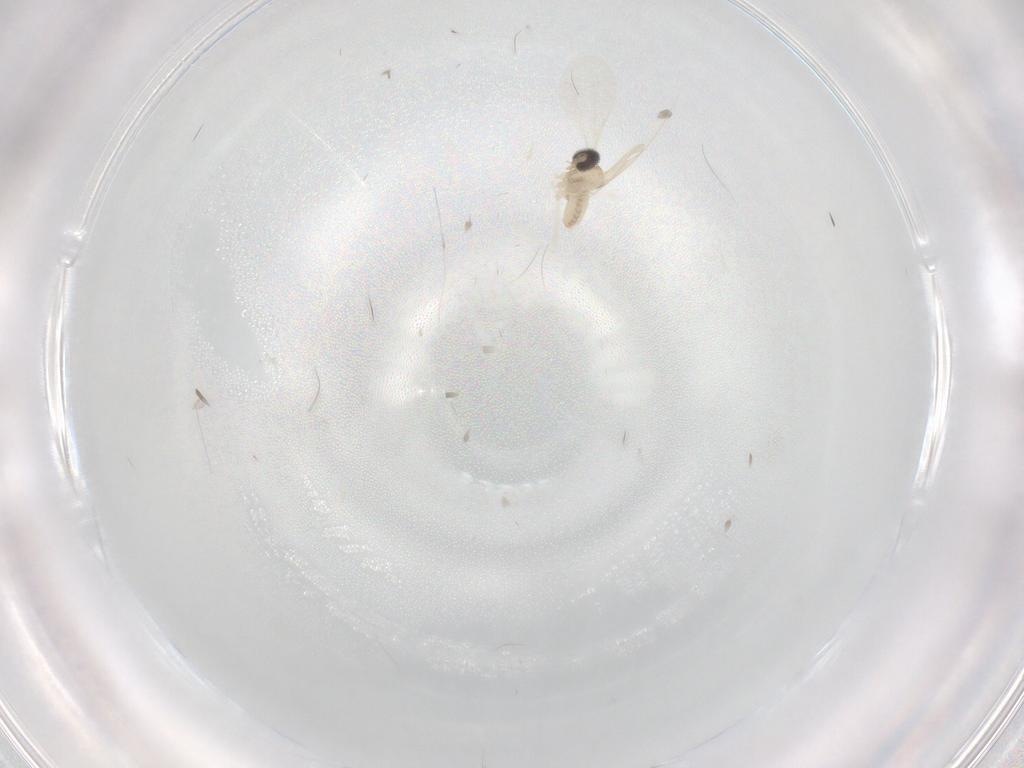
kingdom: Animalia
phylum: Arthropoda
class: Insecta
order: Diptera
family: Cecidomyiidae
